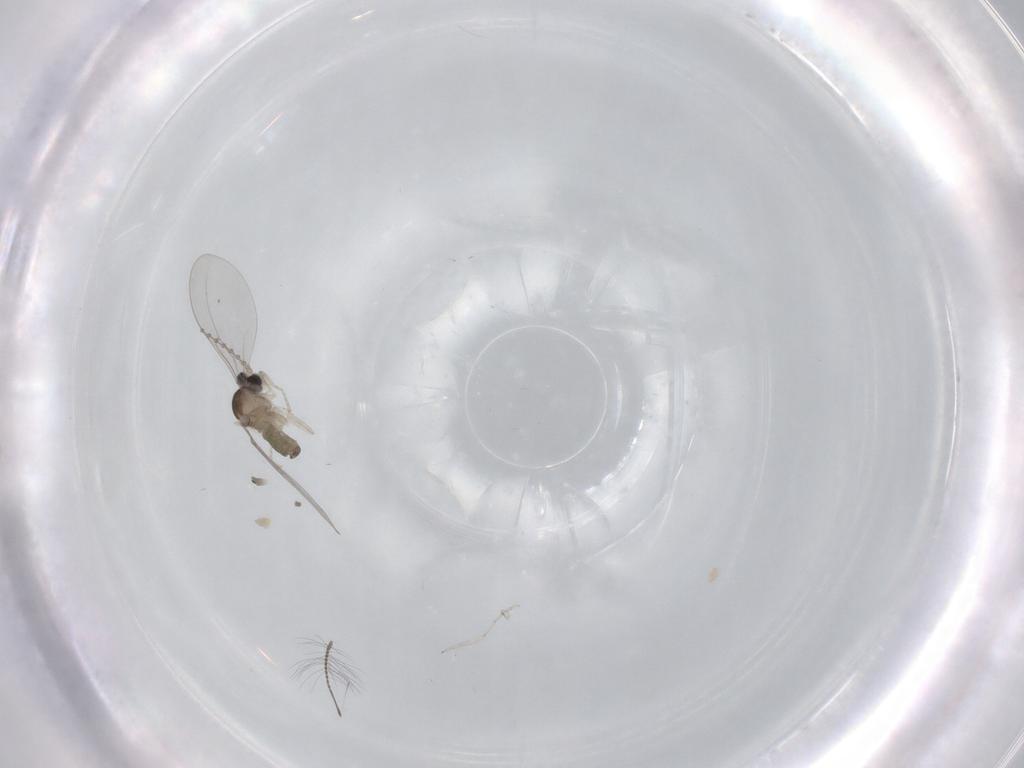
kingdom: Animalia
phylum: Arthropoda
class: Insecta
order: Diptera
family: Cecidomyiidae
